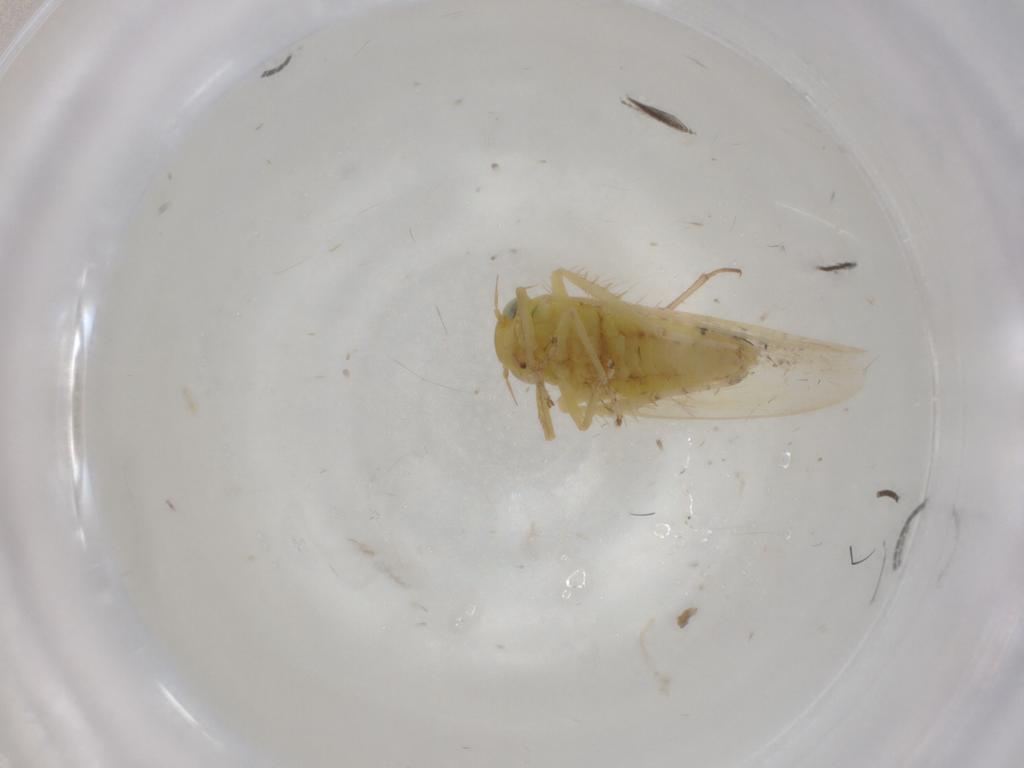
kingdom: Animalia
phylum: Arthropoda
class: Insecta
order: Hemiptera
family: Cicadellidae
